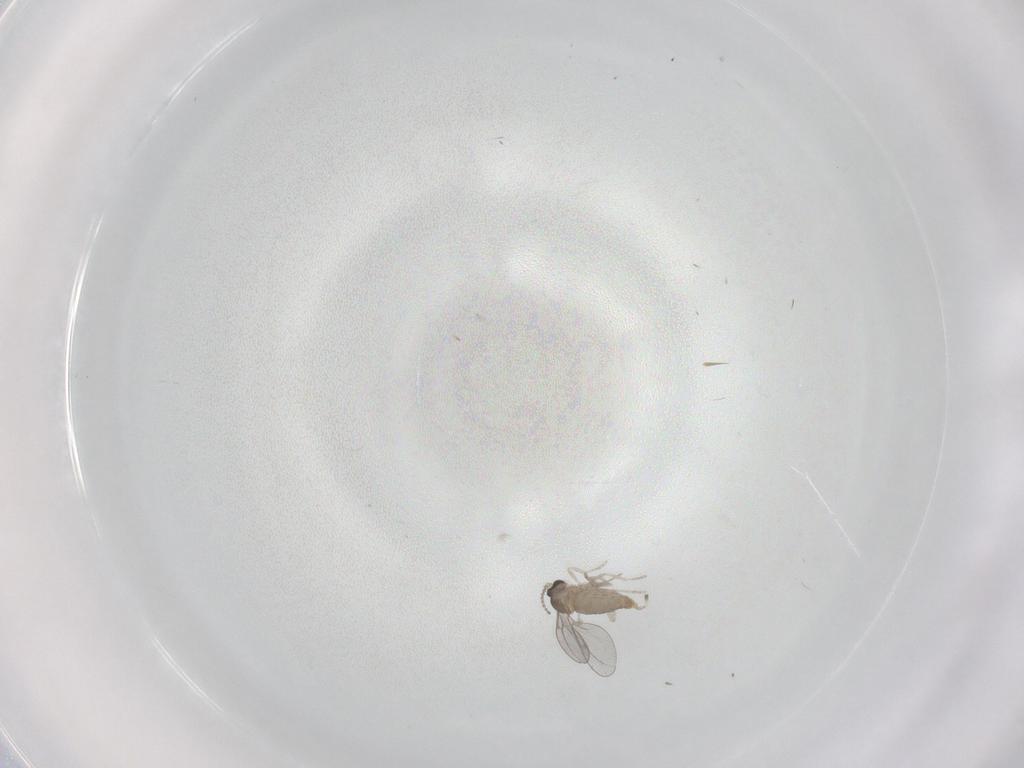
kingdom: Animalia
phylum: Arthropoda
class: Insecta
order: Diptera
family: Cecidomyiidae
